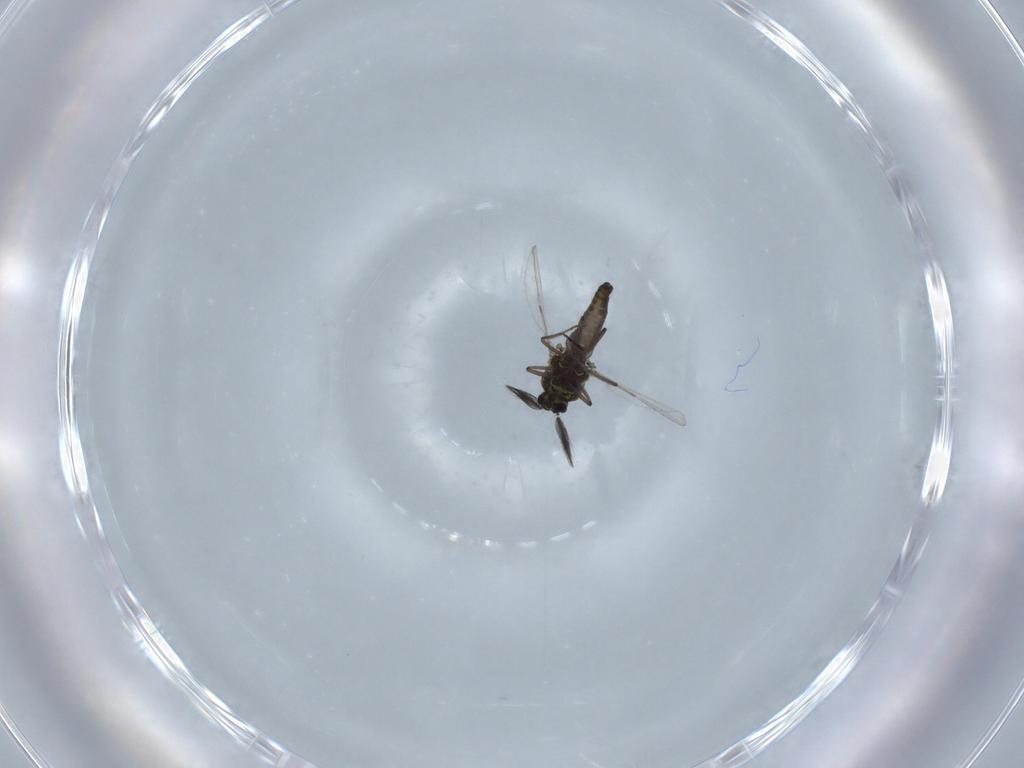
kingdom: Animalia
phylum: Arthropoda
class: Insecta
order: Diptera
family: Ceratopogonidae
